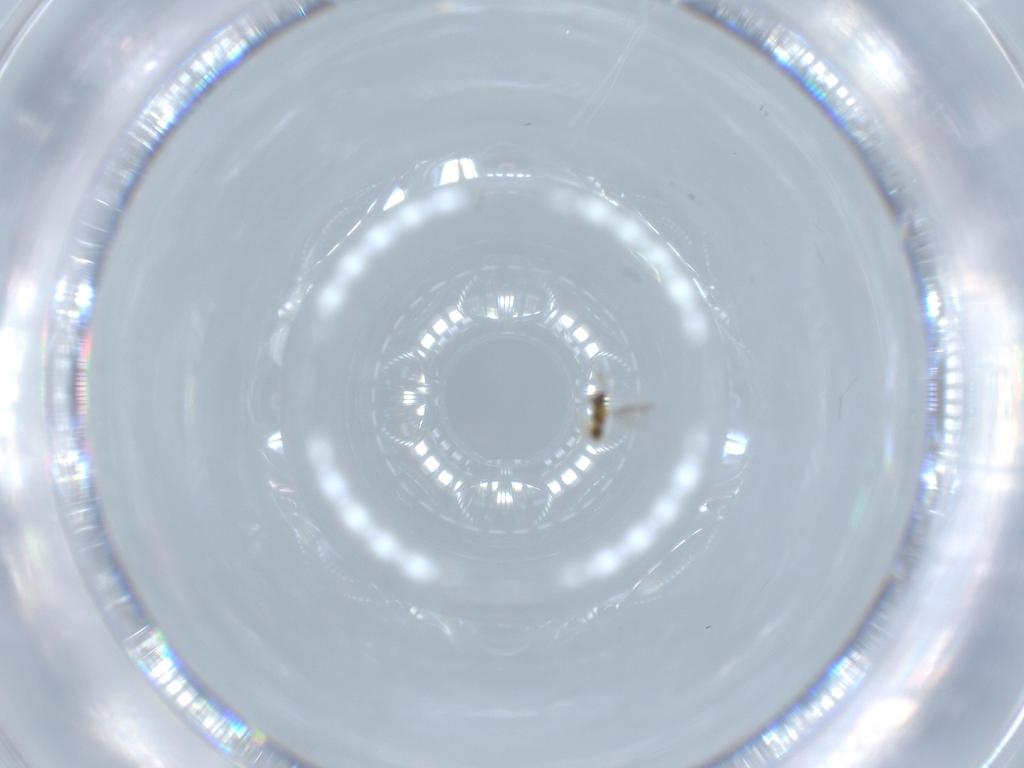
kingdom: Animalia
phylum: Arthropoda
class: Insecta
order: Hymenoptera
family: Aphelinidae
